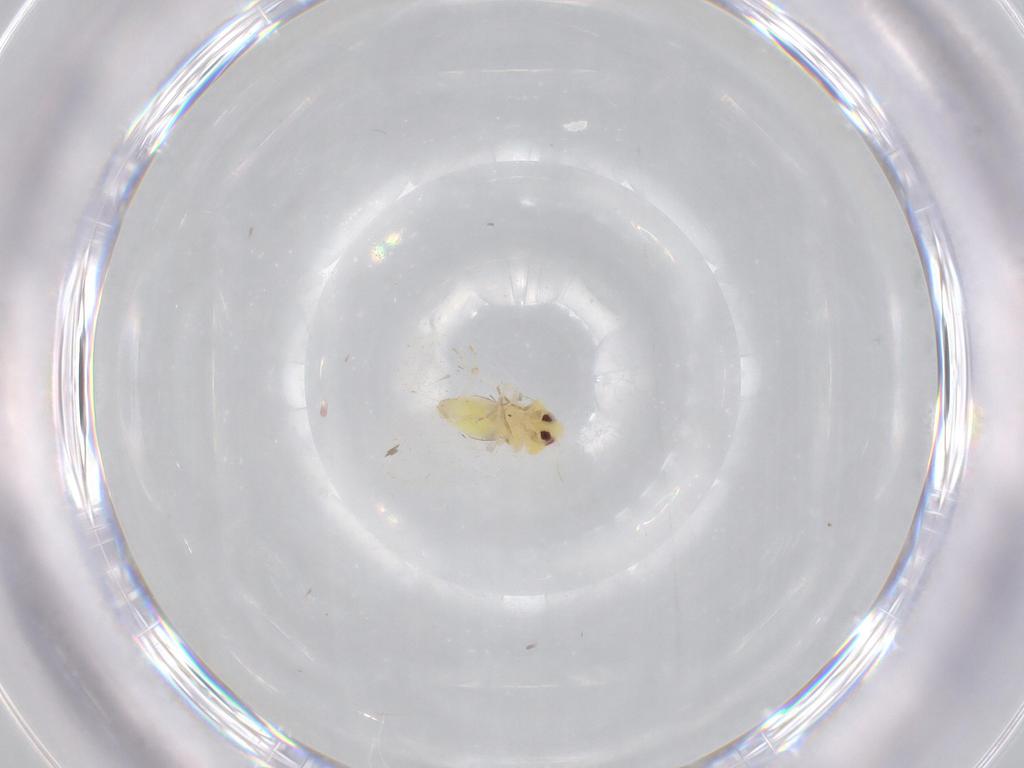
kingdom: Animalia
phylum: Arthropoda
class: Insecta
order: Hemiptera
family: Aleyrodidae
